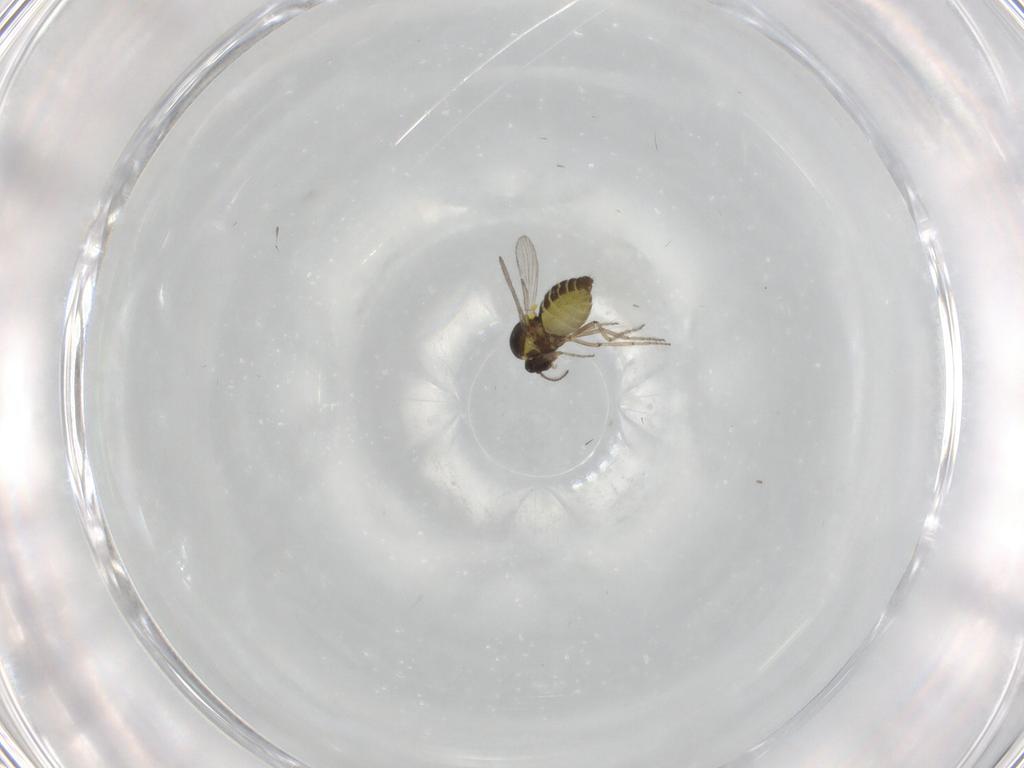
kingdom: Animalia
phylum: Arthropoda
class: Insecta
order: Diptera
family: Ceratopogonidae
